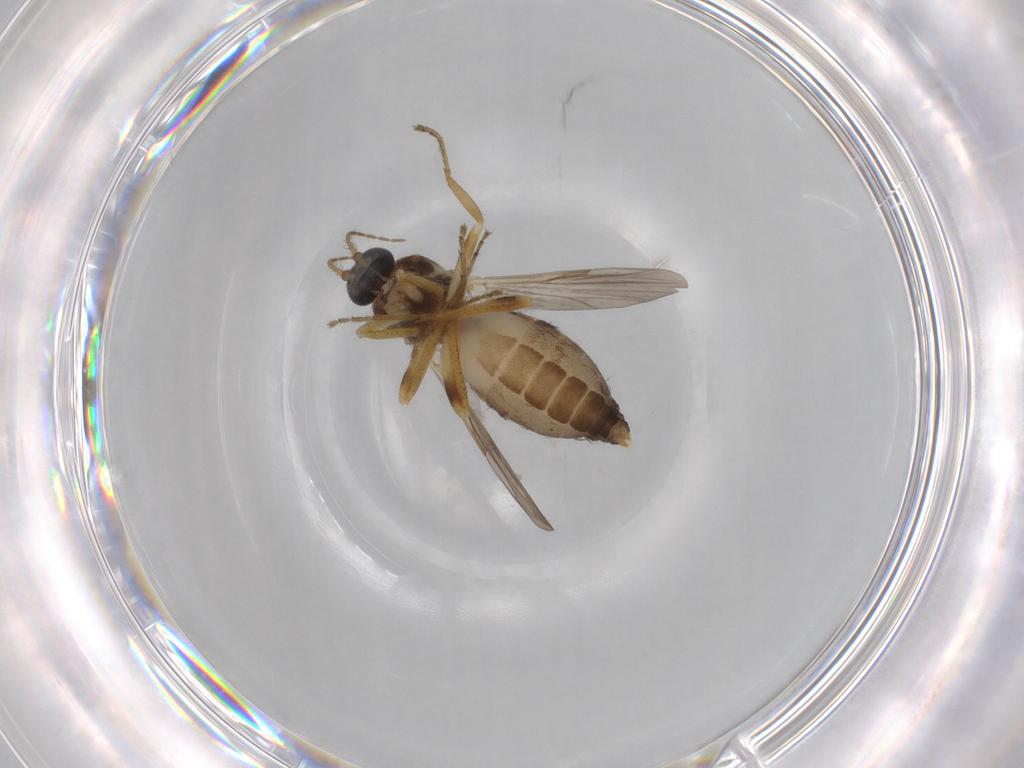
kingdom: Animalia
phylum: Arthropoda
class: Insecta
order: Diptera
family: Ceratopogonidae
